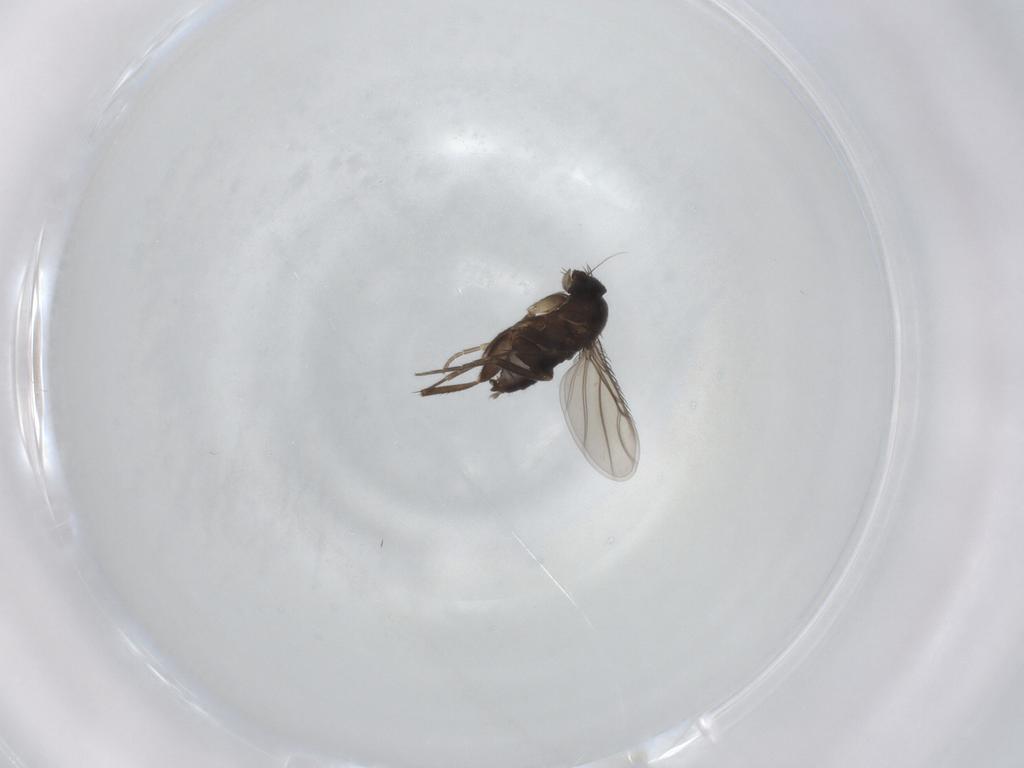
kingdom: Animalia
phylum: Arthropoda
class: Insecta
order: Diptera
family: Phoridae
